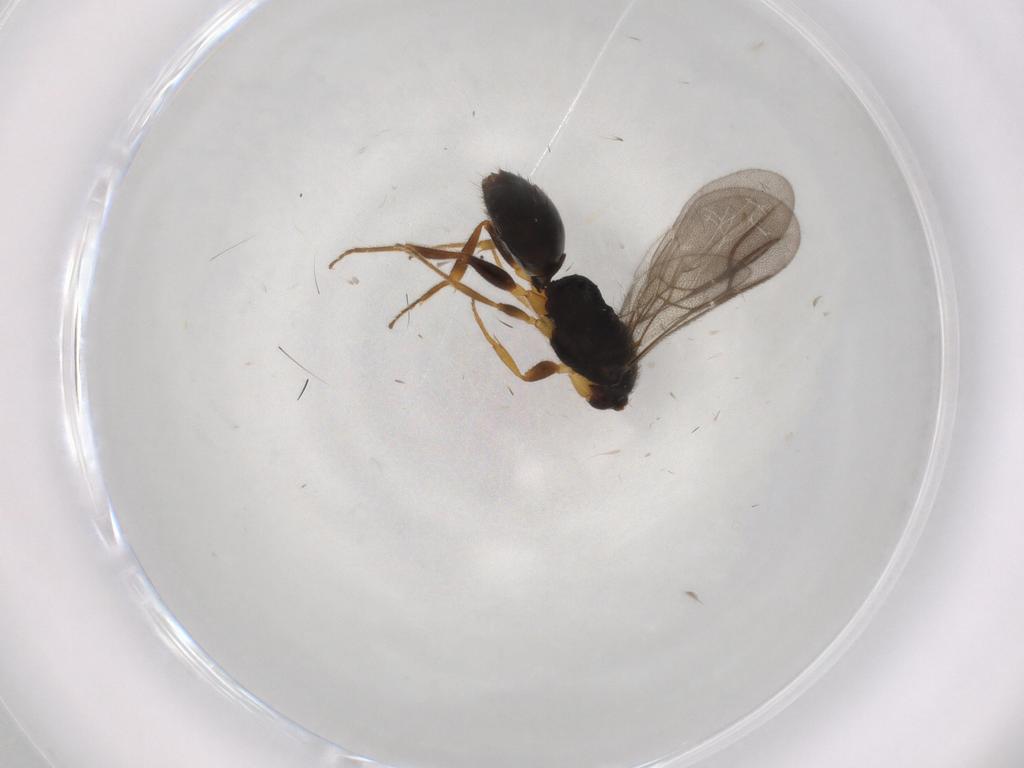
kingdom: Animalia
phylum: Arthropoda
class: Insecta
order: Hymenoptera
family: Bethylidae
